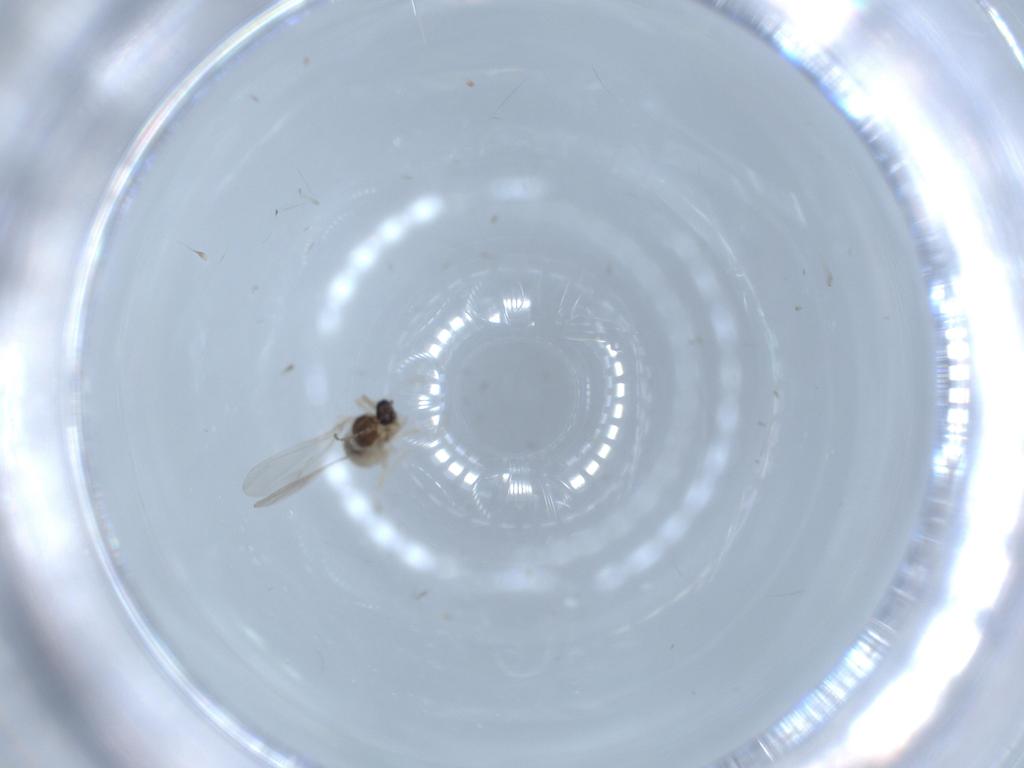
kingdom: Animalia
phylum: Arthropoda
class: Insecta
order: Diptera
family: Cecidomyiidae
